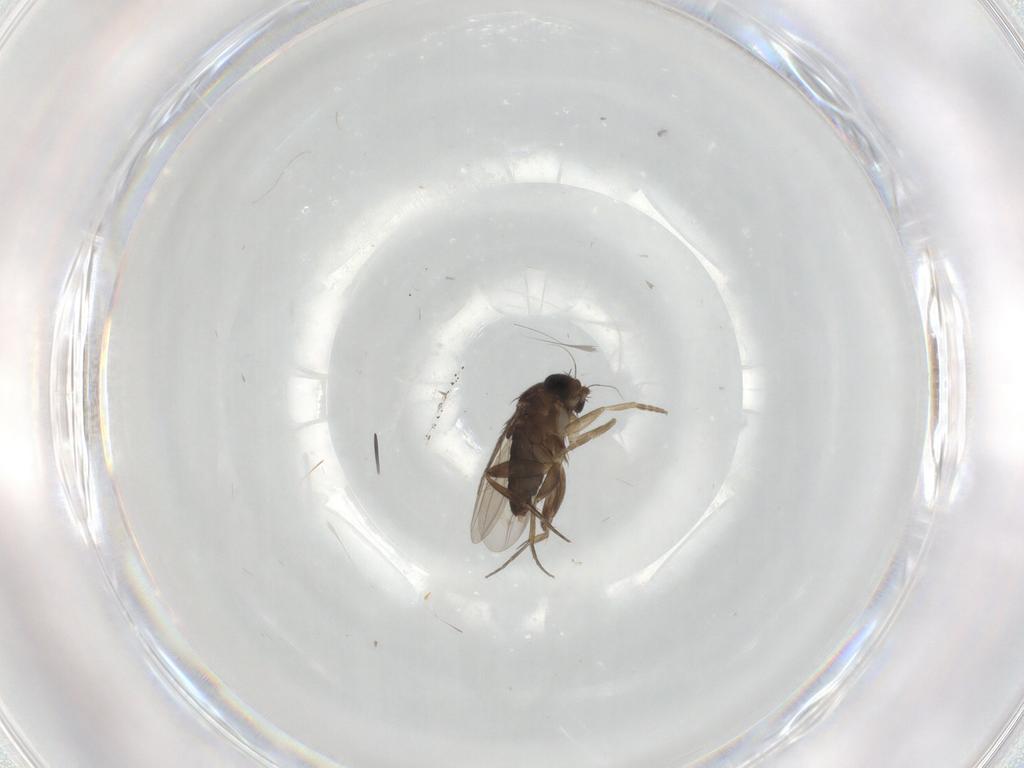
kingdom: Animalia
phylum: Arthropoda
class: Insecta
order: Diptera
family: Phoridae
